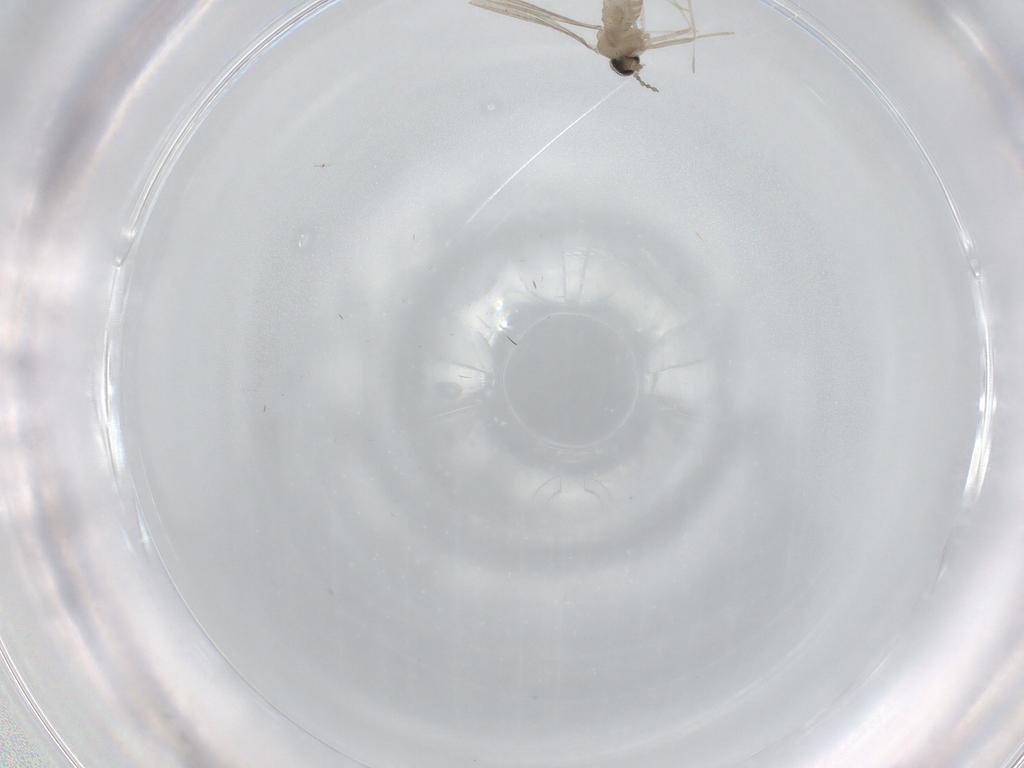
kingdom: Animalia
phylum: Arthropoda
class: Insecta
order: Diptera
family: Cecidomyiidae
